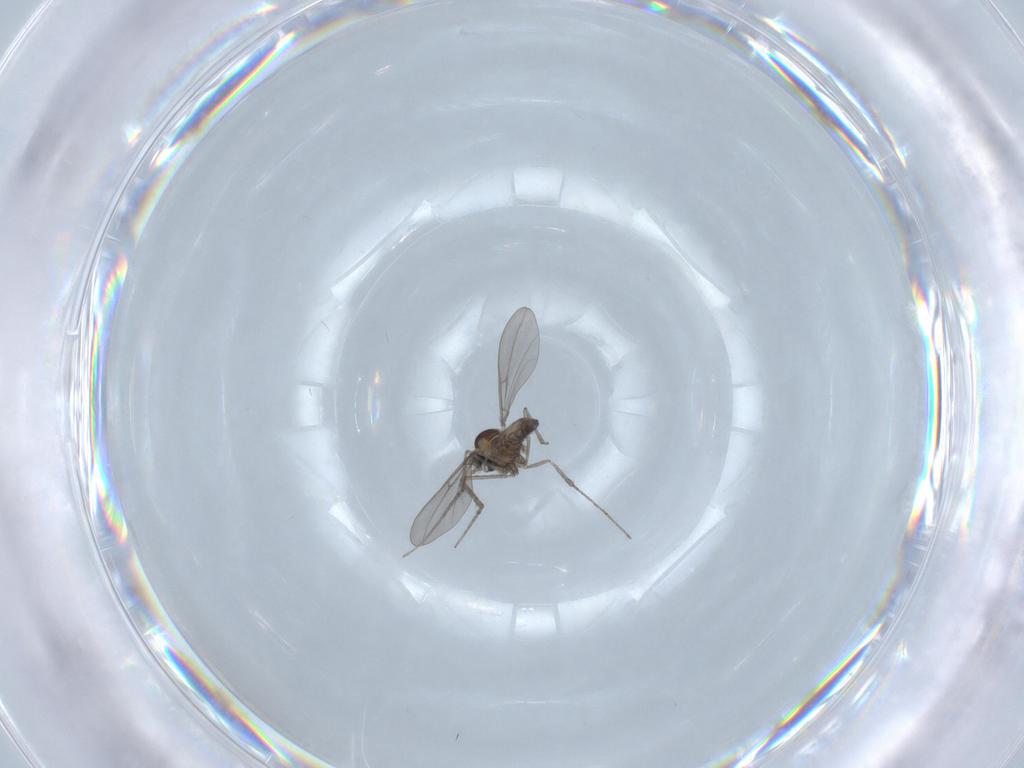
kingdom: Animalia
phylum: Arthropoda
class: Insecta
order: Diptera
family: Cecidomyiidae
